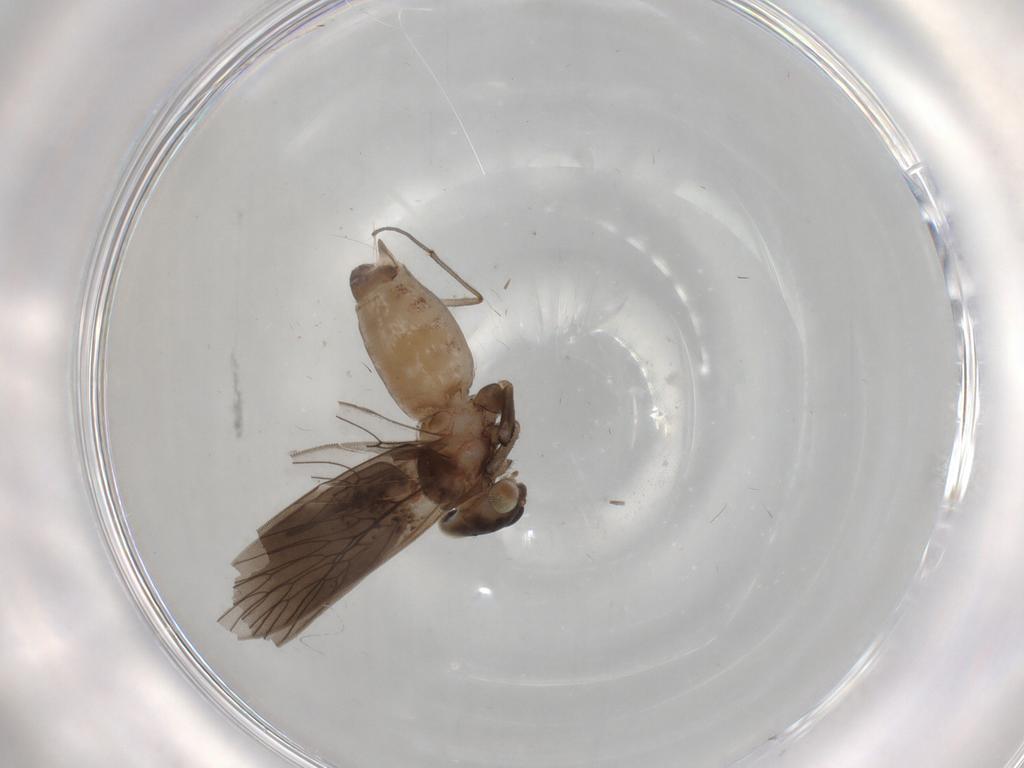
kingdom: Animalia
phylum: Arthropoda
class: Insecta
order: Psocodea
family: Lepidopsocidae
